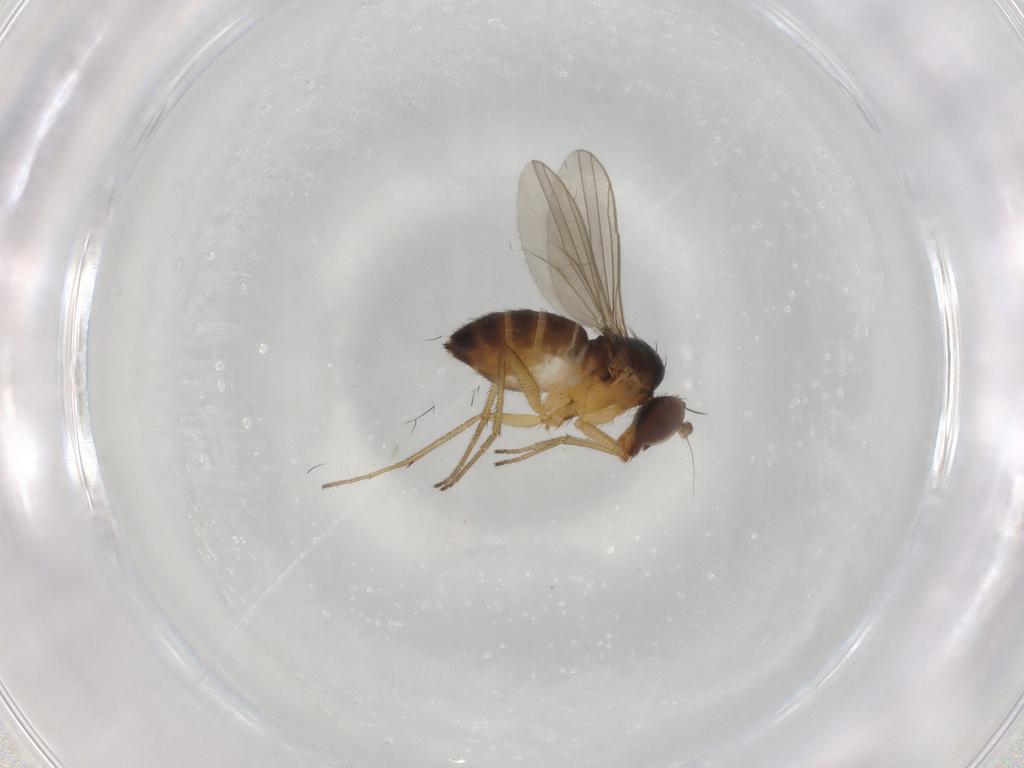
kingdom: Animalia
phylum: Arthropoda
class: Insecta
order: Diptera
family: Dolichopodidae
